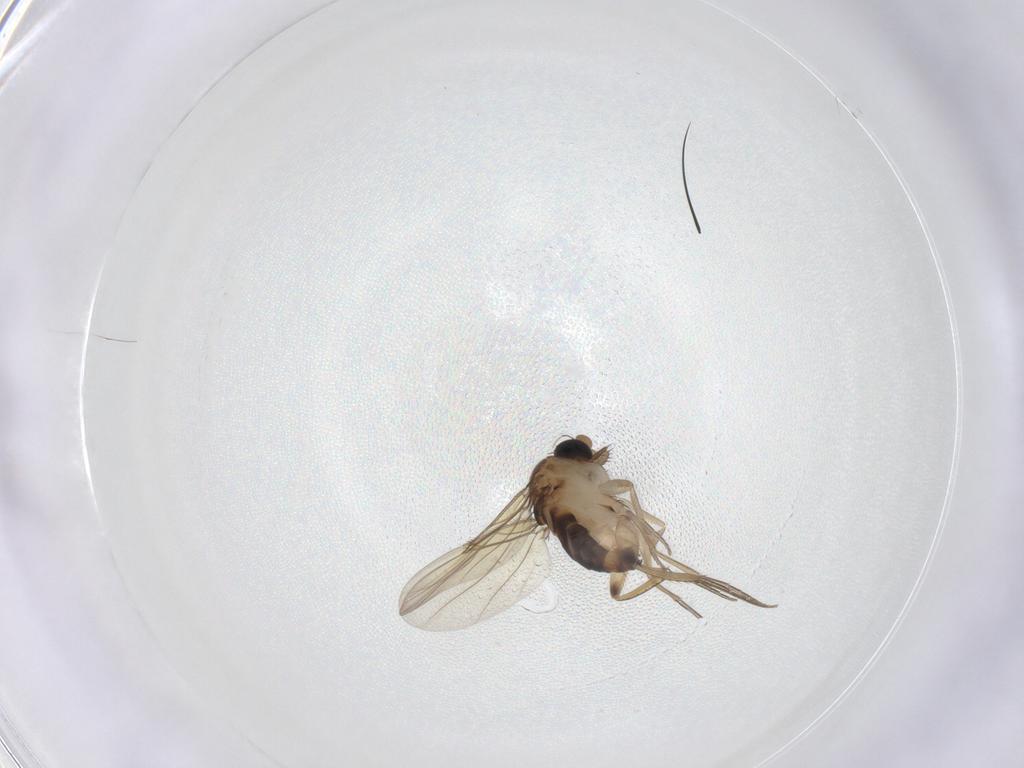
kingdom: Animalia
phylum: Arthropoda
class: Insecta
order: Diptera
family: Phoridae
